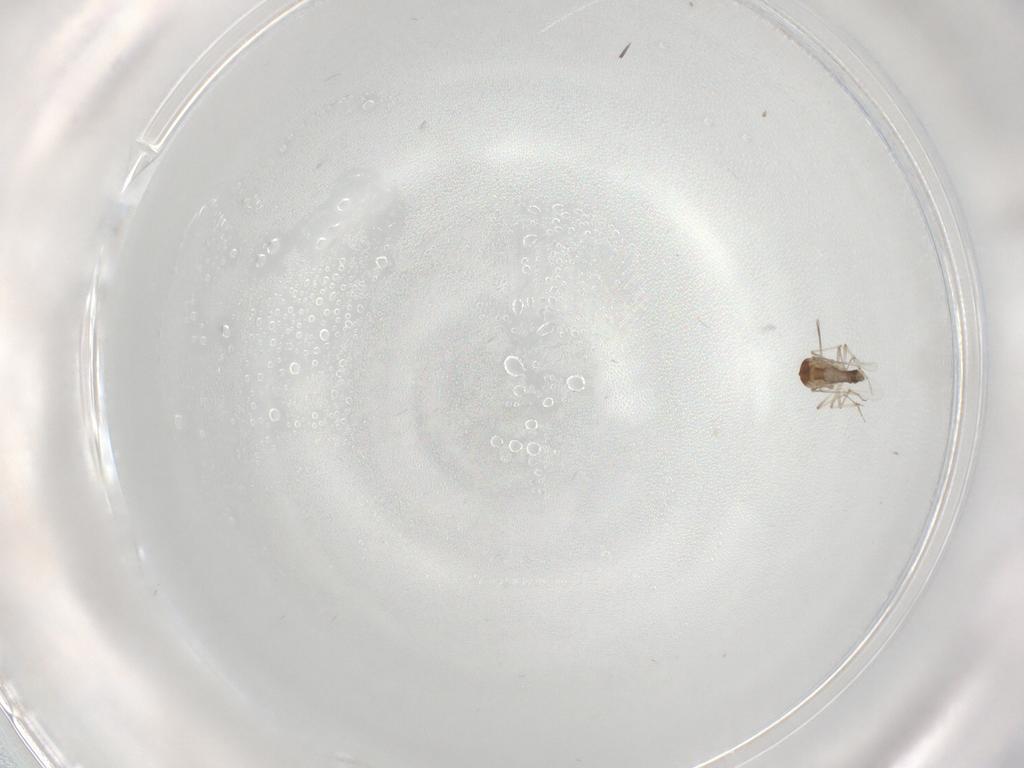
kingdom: Animalia
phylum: Arthropoda
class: Insecta
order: Diptera
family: Ceratopogonidae
